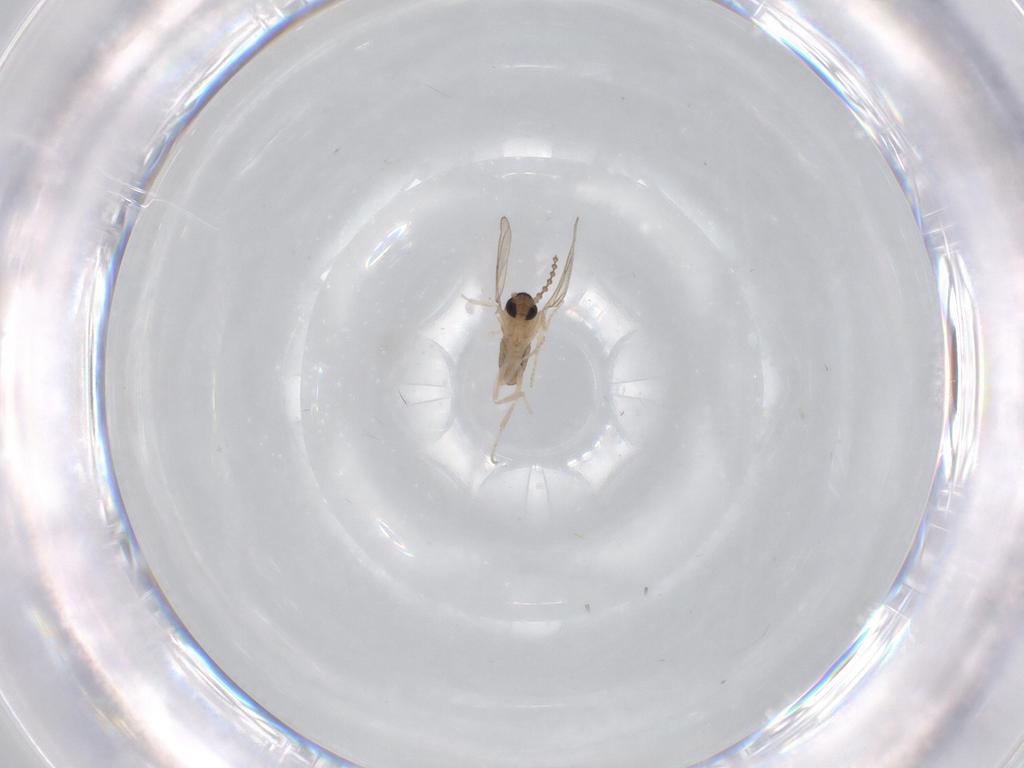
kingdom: Animalia
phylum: Arthropoda
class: Insecta
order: Diptera
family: Cecidomyiidae
